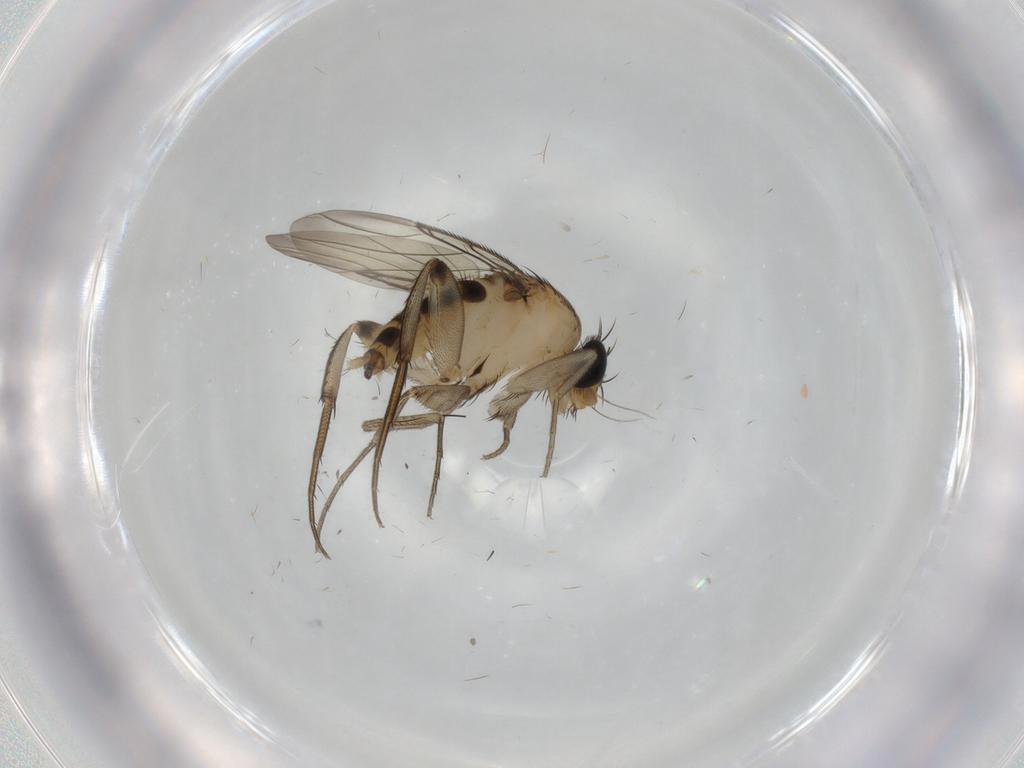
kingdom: Animalia
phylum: Arthropoda
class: Insecta
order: Diptera
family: Phoridae
